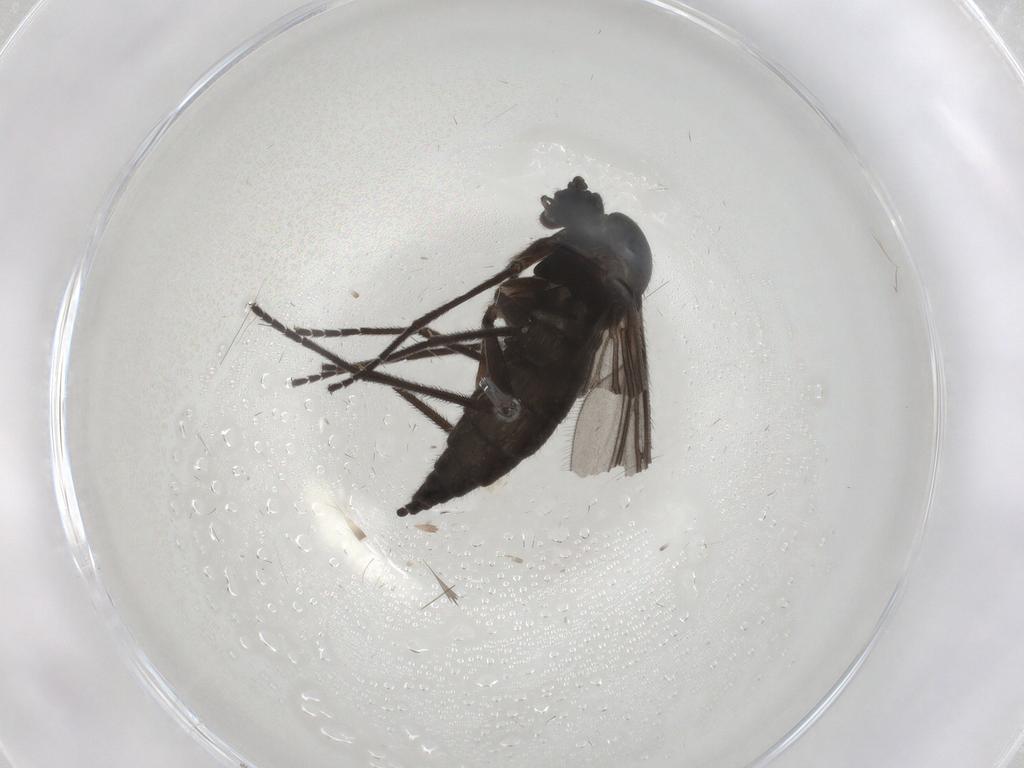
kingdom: Animalia
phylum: Arthropoda
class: Insecta
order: Diptera
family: Sciaridae
